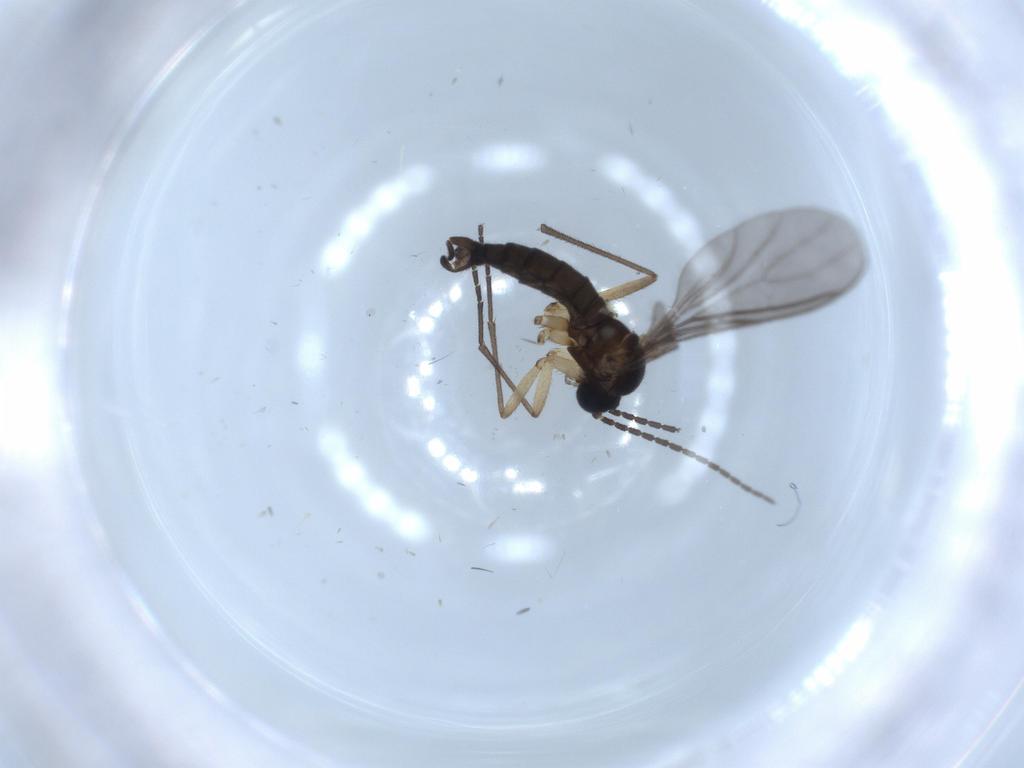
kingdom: Animalia
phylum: Arthropoda
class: Insecta
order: Diptera
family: Sciaridae
